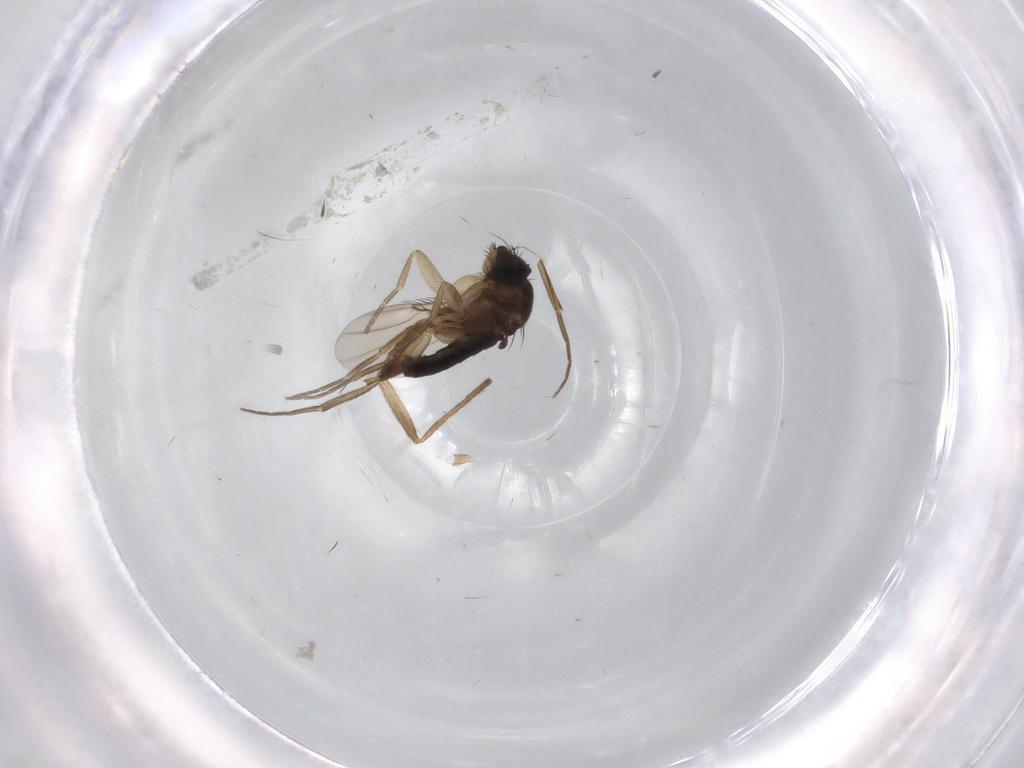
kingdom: Animalia
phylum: Arthropoda
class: Insecta
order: Diptera
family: Phoridae
